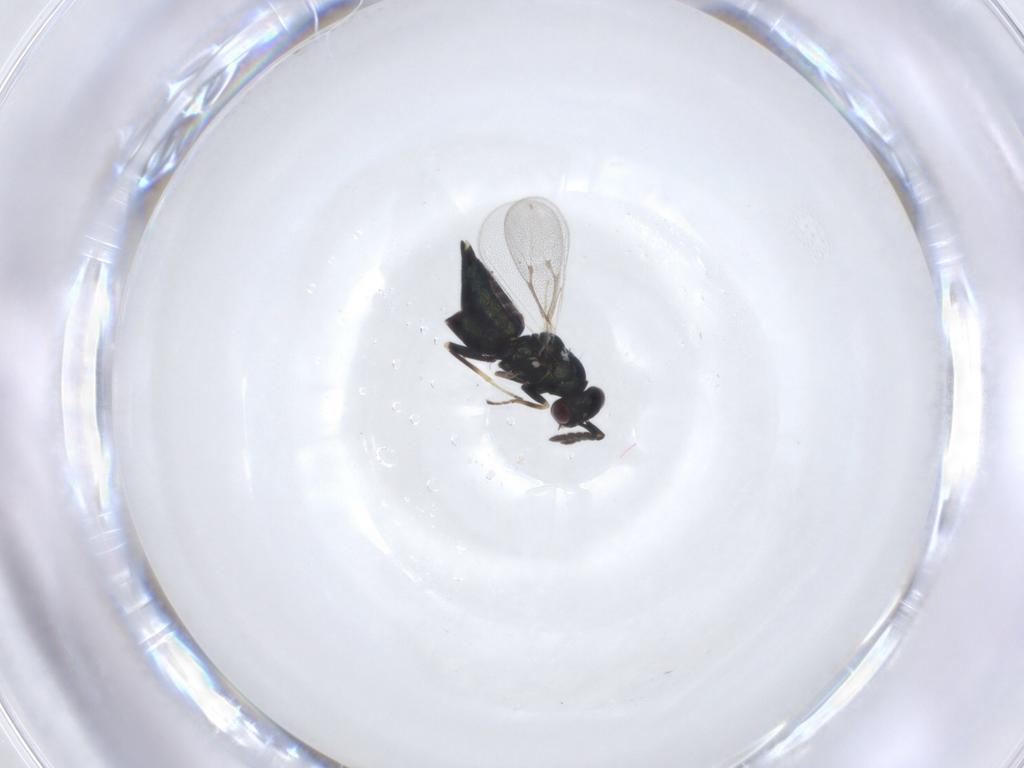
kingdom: Animalia
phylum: Arthropoda
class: Insecta
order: Hymenoptera
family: Eulophidae
